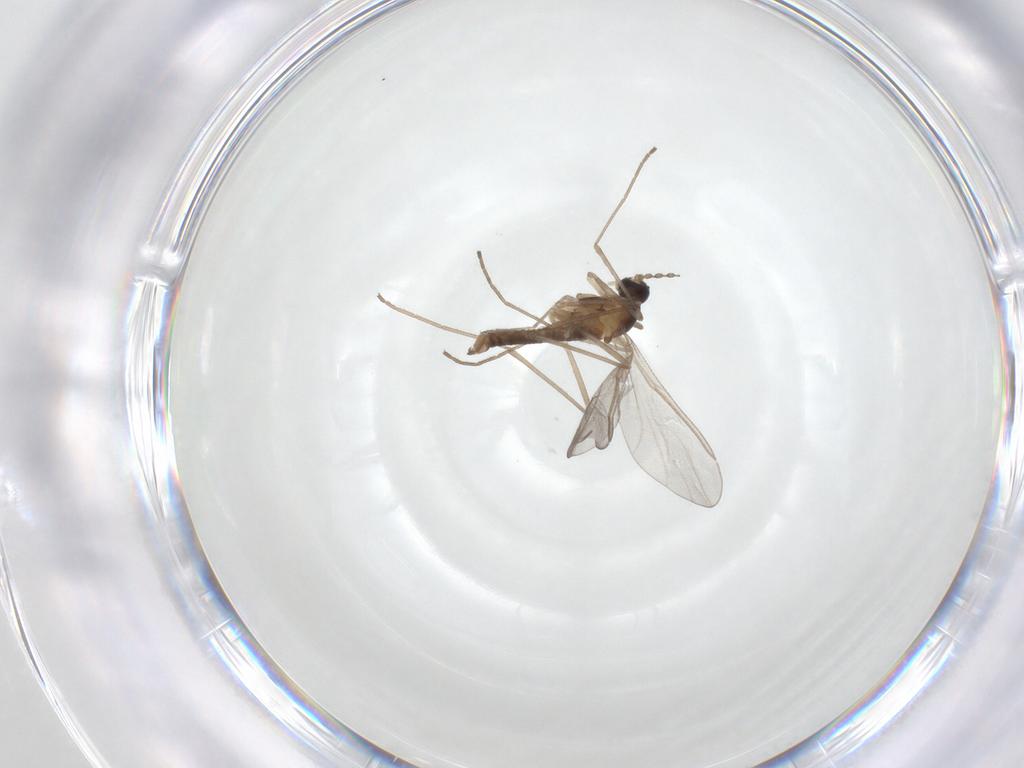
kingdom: Animalia
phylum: Arthropoda
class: Insecta
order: Diptera
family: Cecidomyiidae
